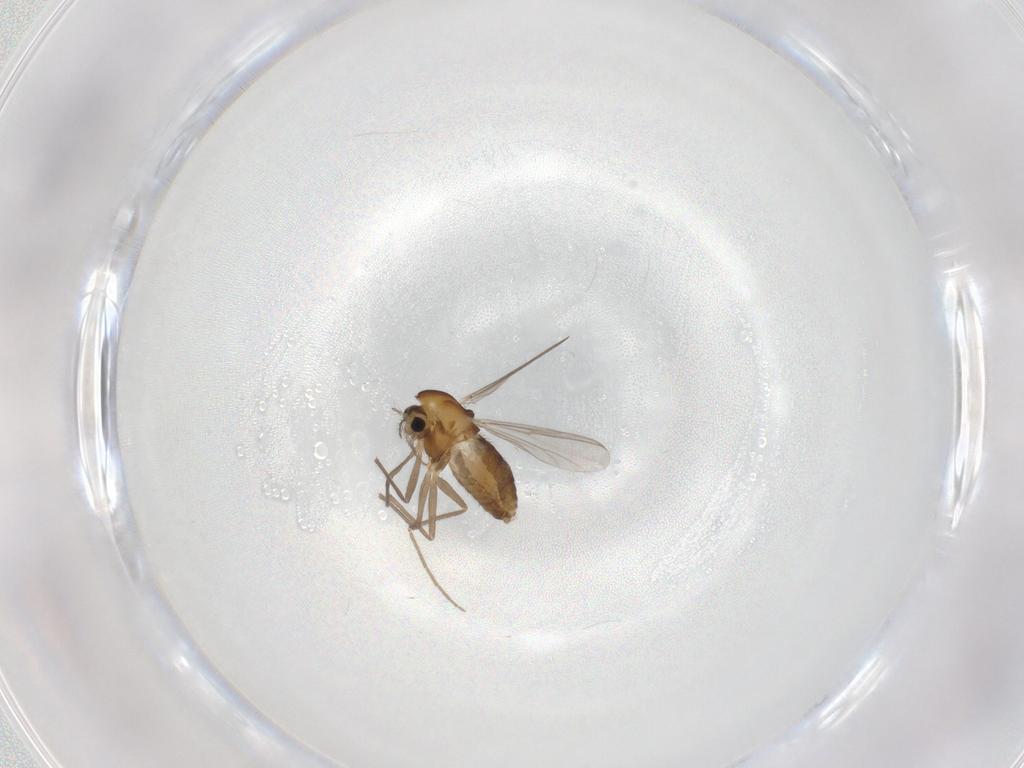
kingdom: Animalia
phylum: Arthropoda
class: Insecta
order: Diptera
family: Chironomidae
